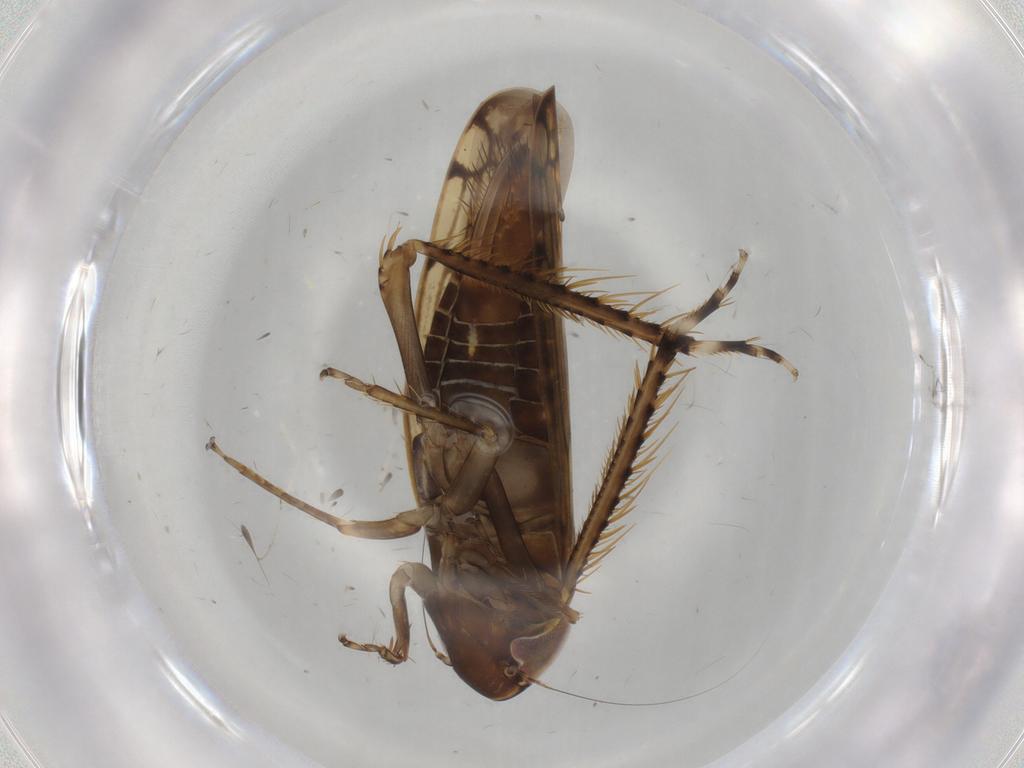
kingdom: Animalia
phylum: Arthropoda
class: Insecta
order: Hemiptera
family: Cicadellidae
